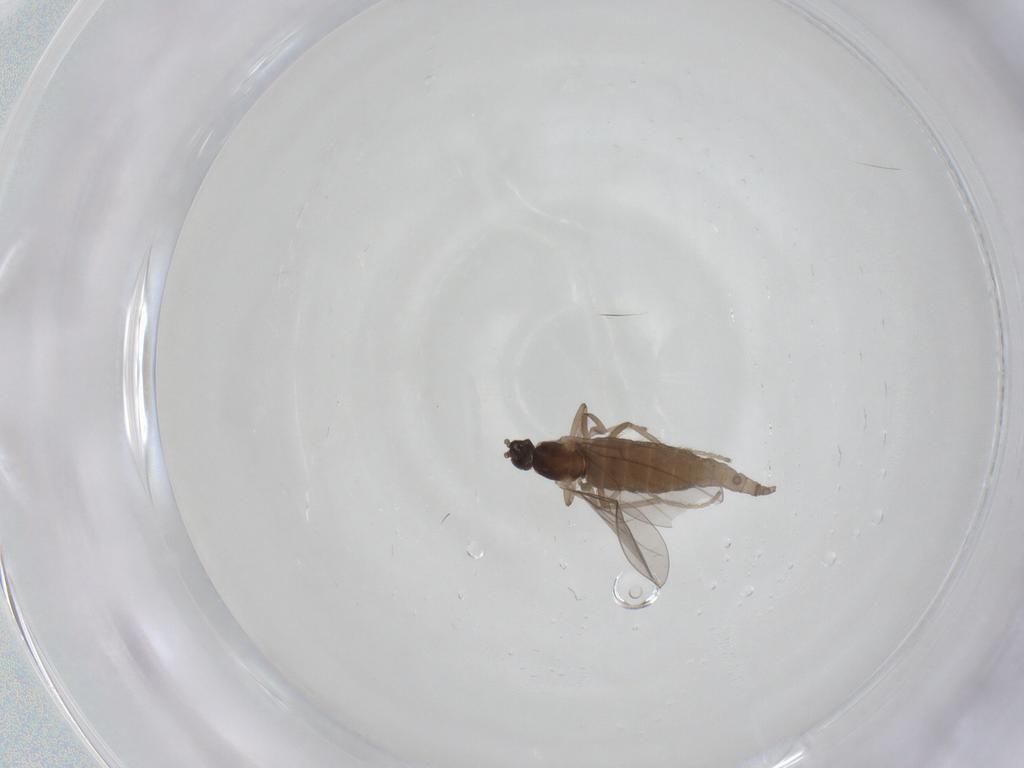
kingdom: Animalia
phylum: Arthropoda
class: Insecta
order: Diptera
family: Cecidomyiidae
